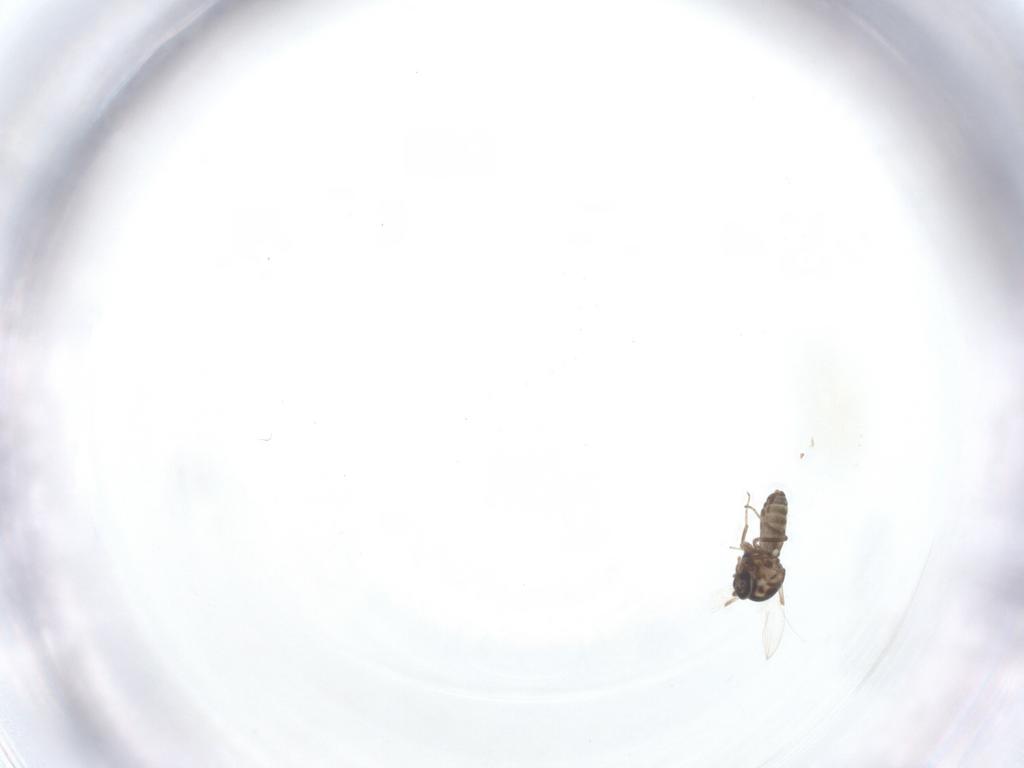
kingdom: Animalia
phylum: Arthropoda
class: Insecta
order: Diptera
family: Ceratopogonidae
